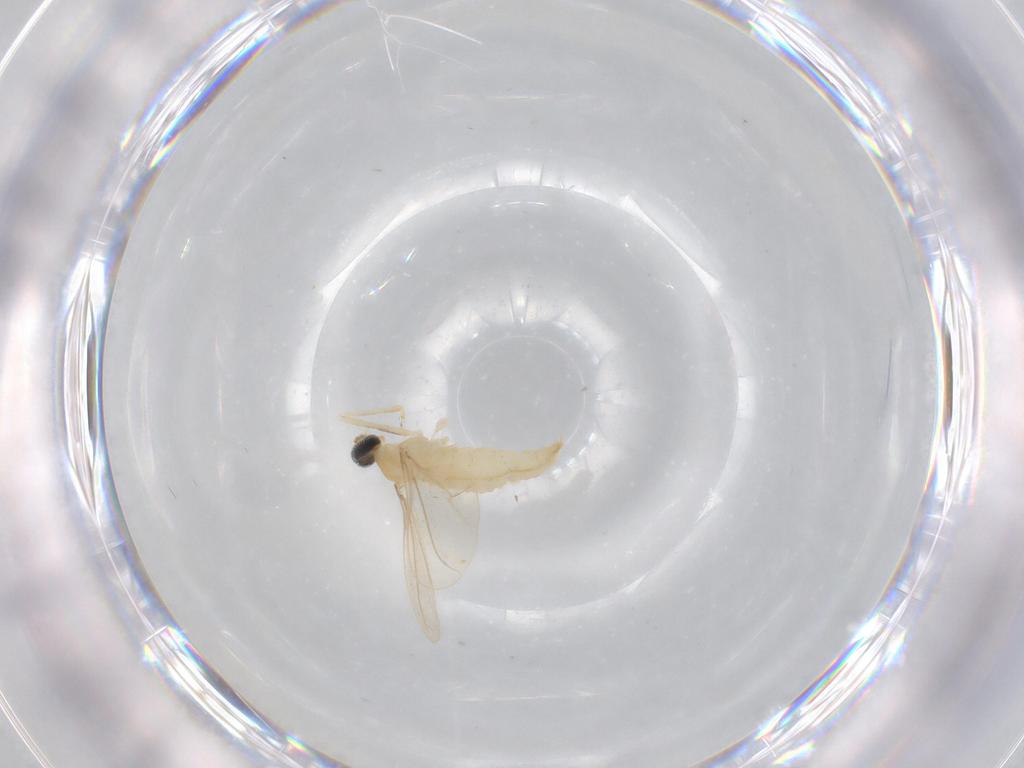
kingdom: Animalia
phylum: Arthropoda
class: Insecta
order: Diptera
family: Cecidomyiidae
